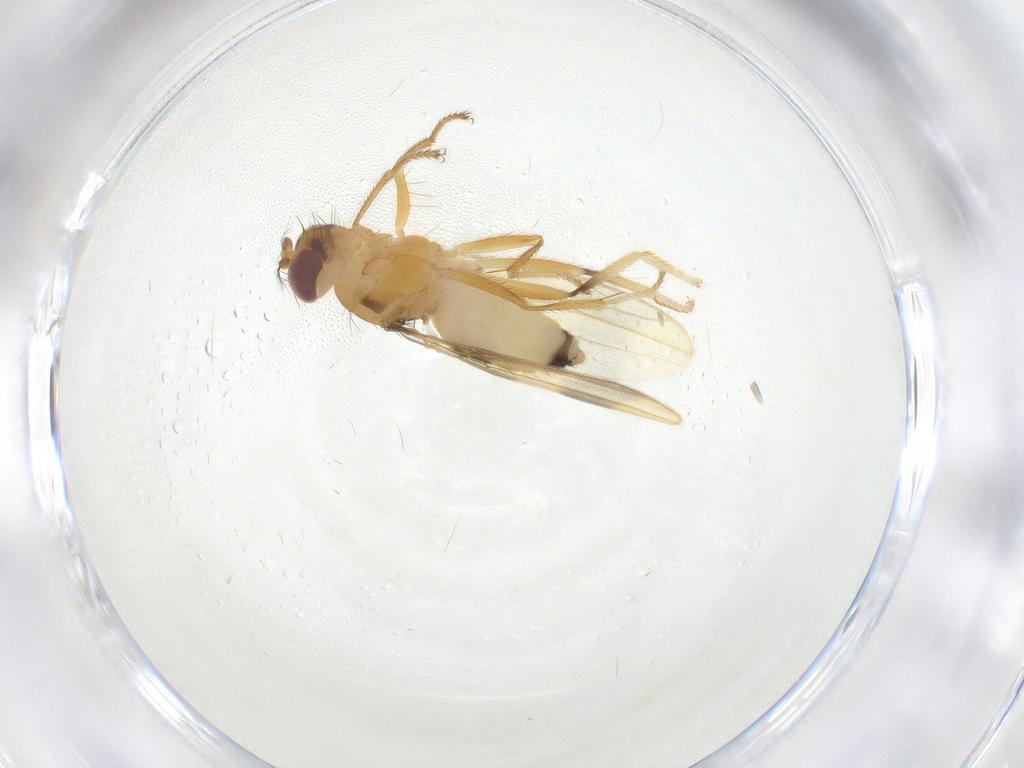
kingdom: Animalia
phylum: Arthropoda
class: Insecta
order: Diptera
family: Periscelididae
